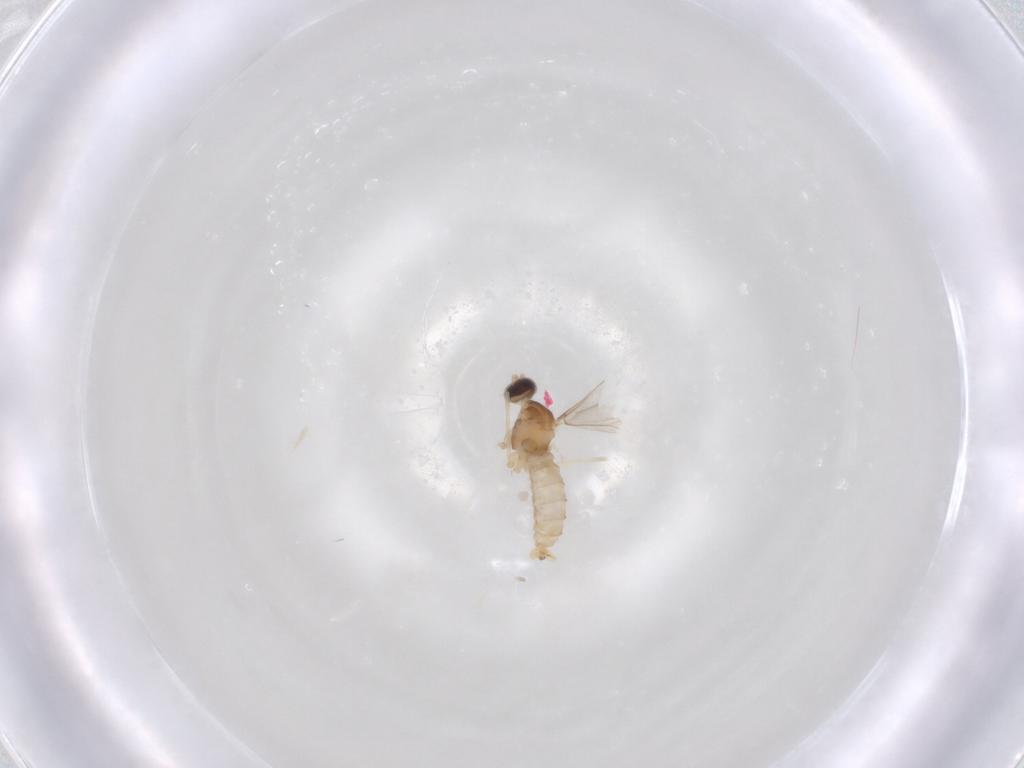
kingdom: Animalia
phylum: Arthropoda
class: Insecta
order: Diptera
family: Cecidomyiidae
